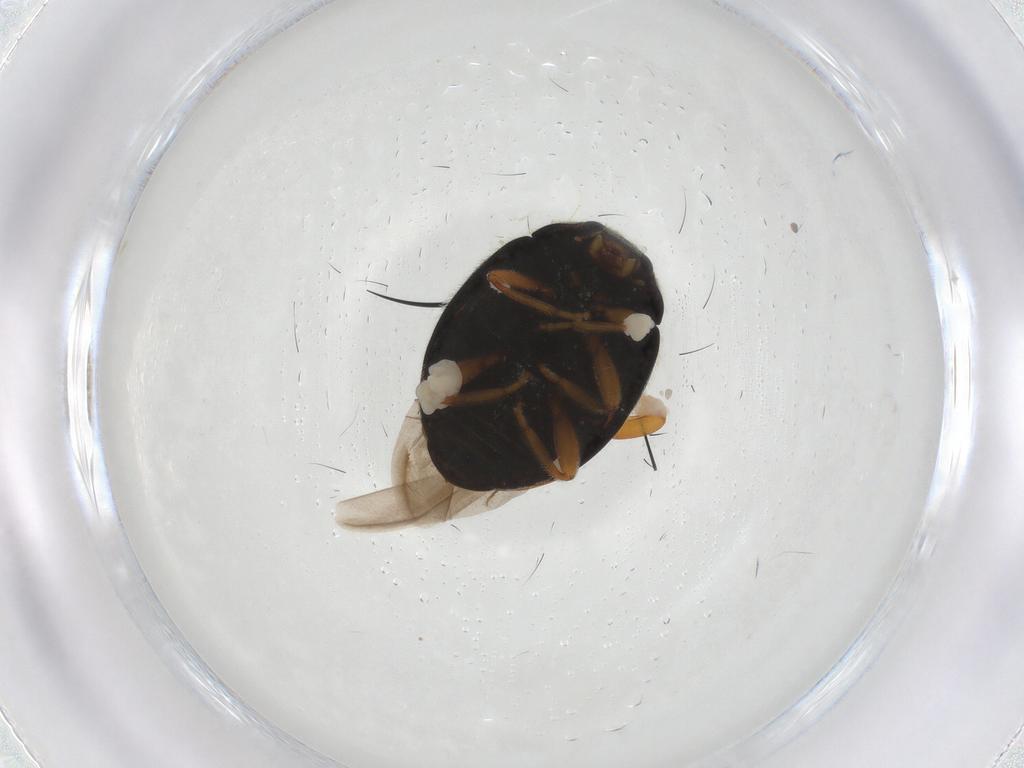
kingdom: Animalia
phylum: Arthropoda
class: Insecta
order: Coleoptera
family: Coccinellidae
